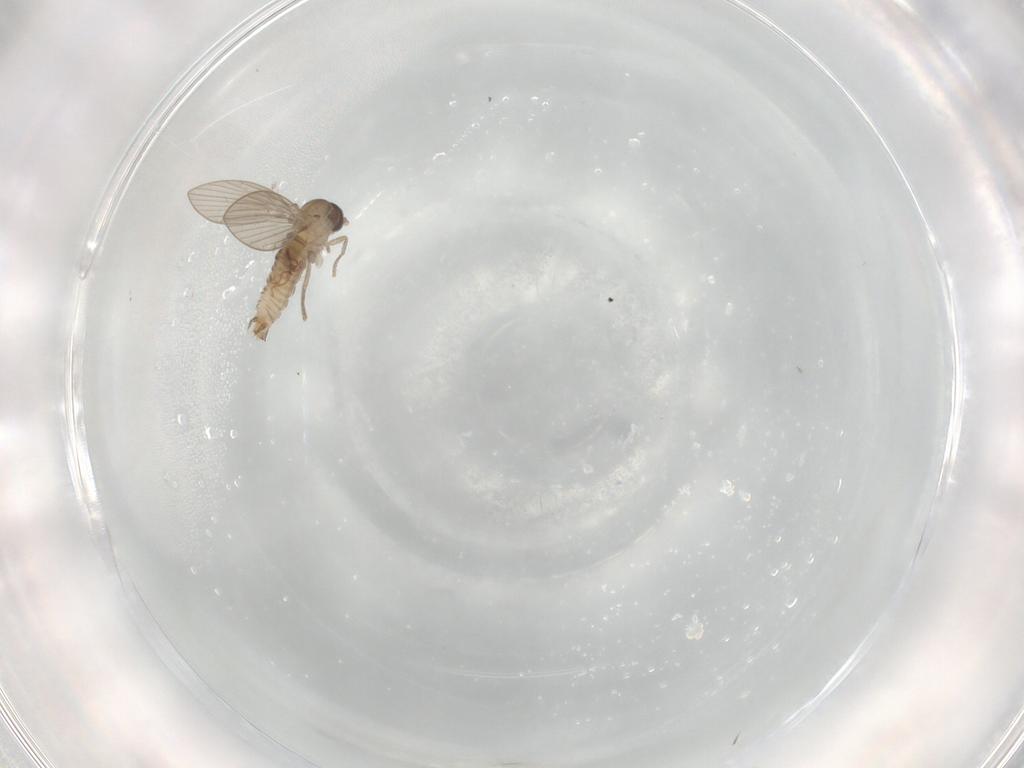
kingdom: Animalia
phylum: Arthropoda
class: Insecta
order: Diptera
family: Psychodidae
